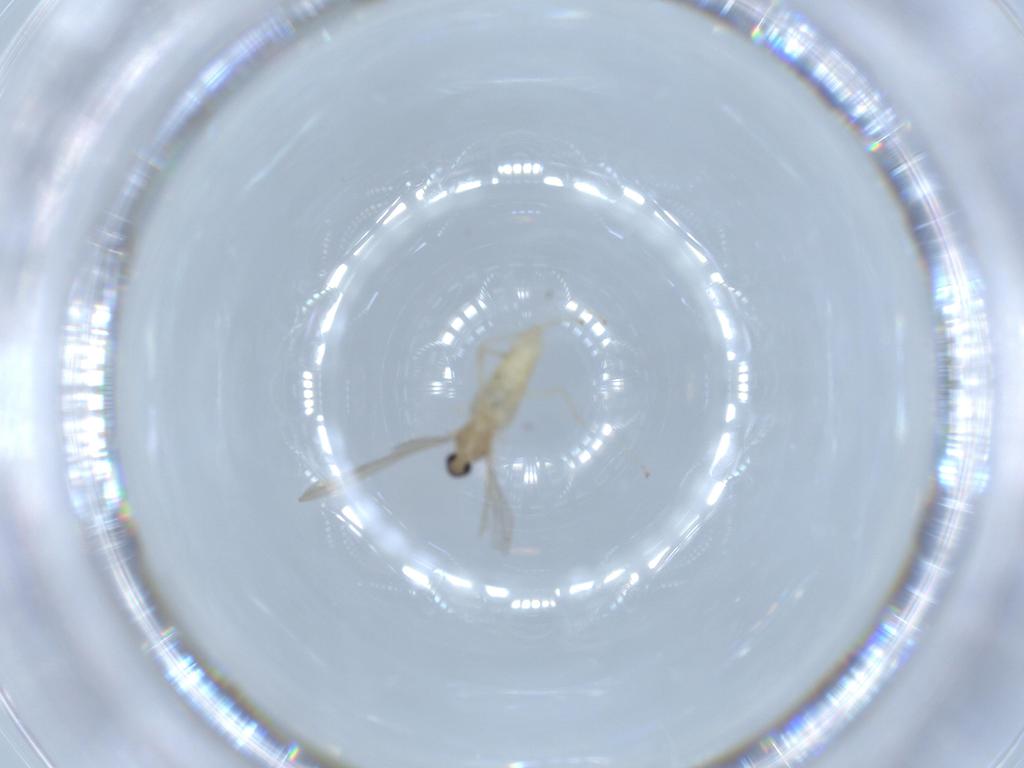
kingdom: Animalia
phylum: Arthropoda
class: Insecta
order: Diptera
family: Cecidomyiidae
